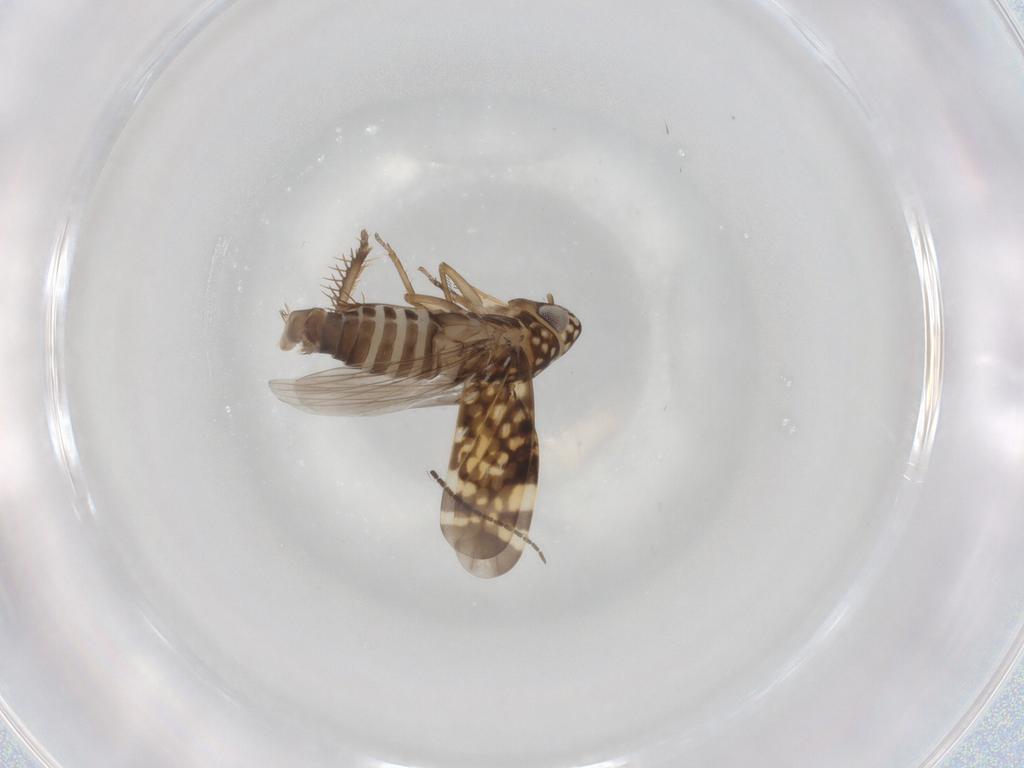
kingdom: Animalia
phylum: Arthropoda
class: Insecta
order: Hemiptera
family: Cicadellidae
